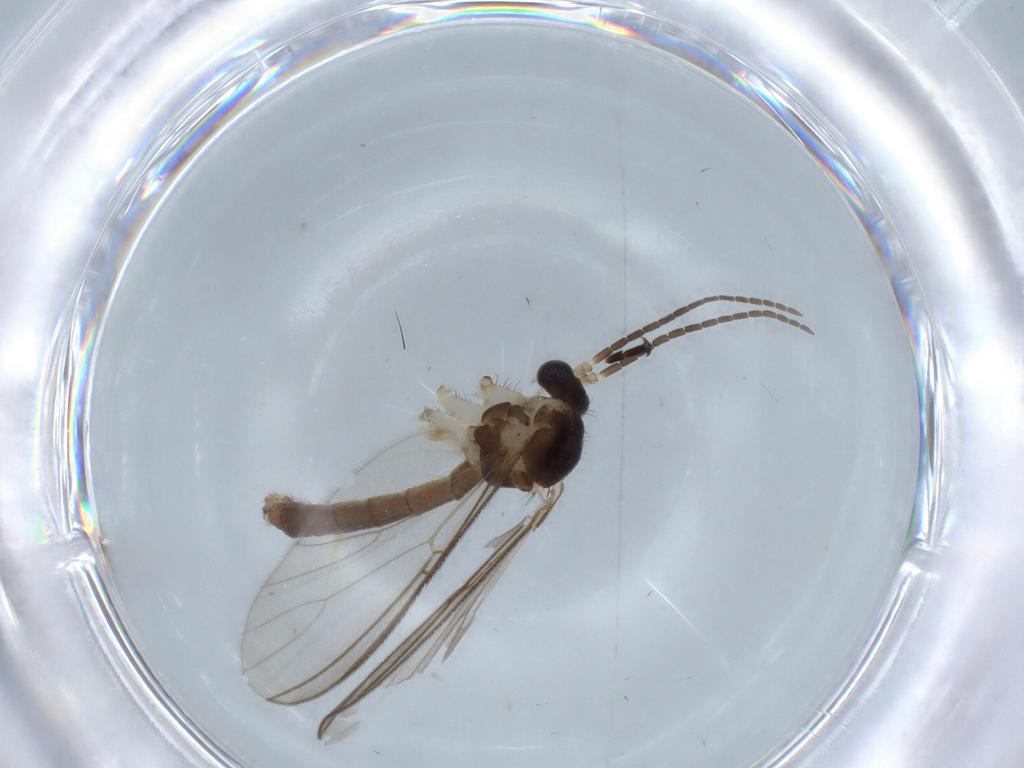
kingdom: Animalia
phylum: Arthropoda
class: Insecta
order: Diptera
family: Mycetophilidae
